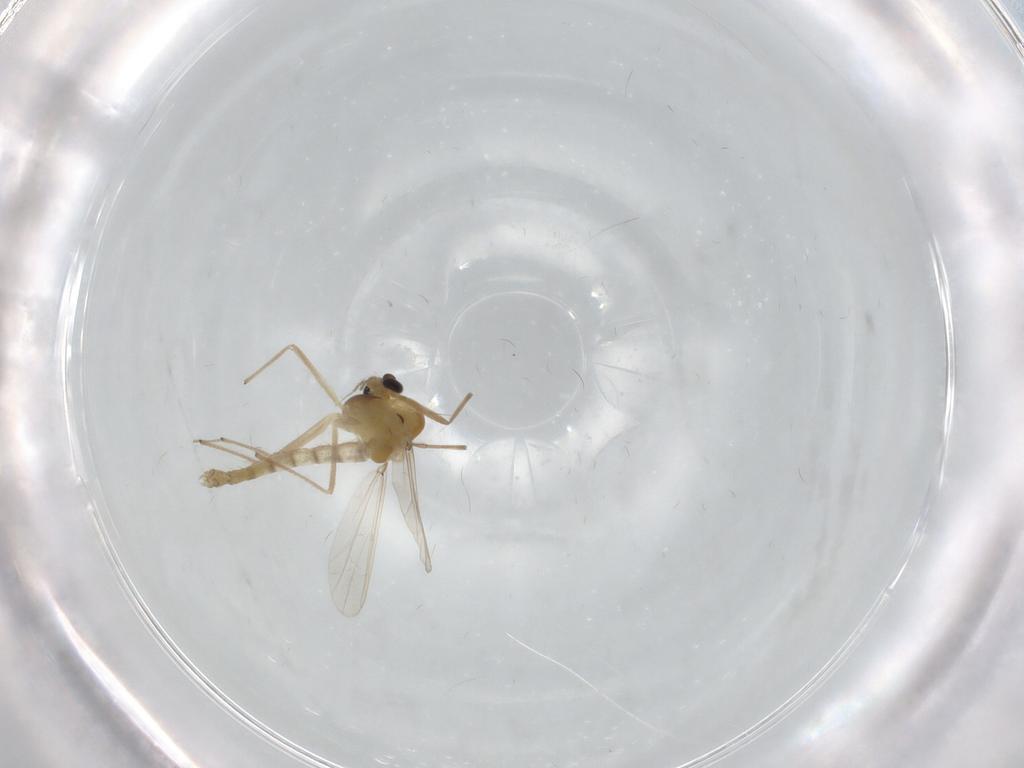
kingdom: Animalia
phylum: Arthropoda
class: Insecta
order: Diptera
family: Chironomidae
